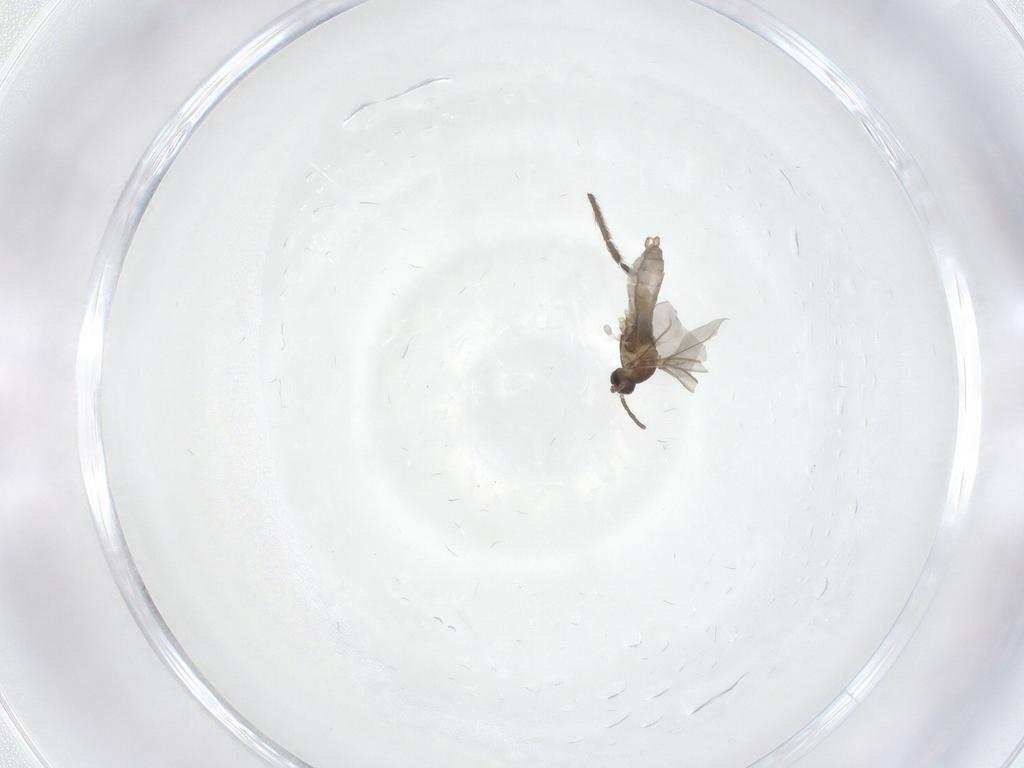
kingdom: Animalia
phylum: Arthropoda
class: Insecta
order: Diptera
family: Cecidomyiidae
